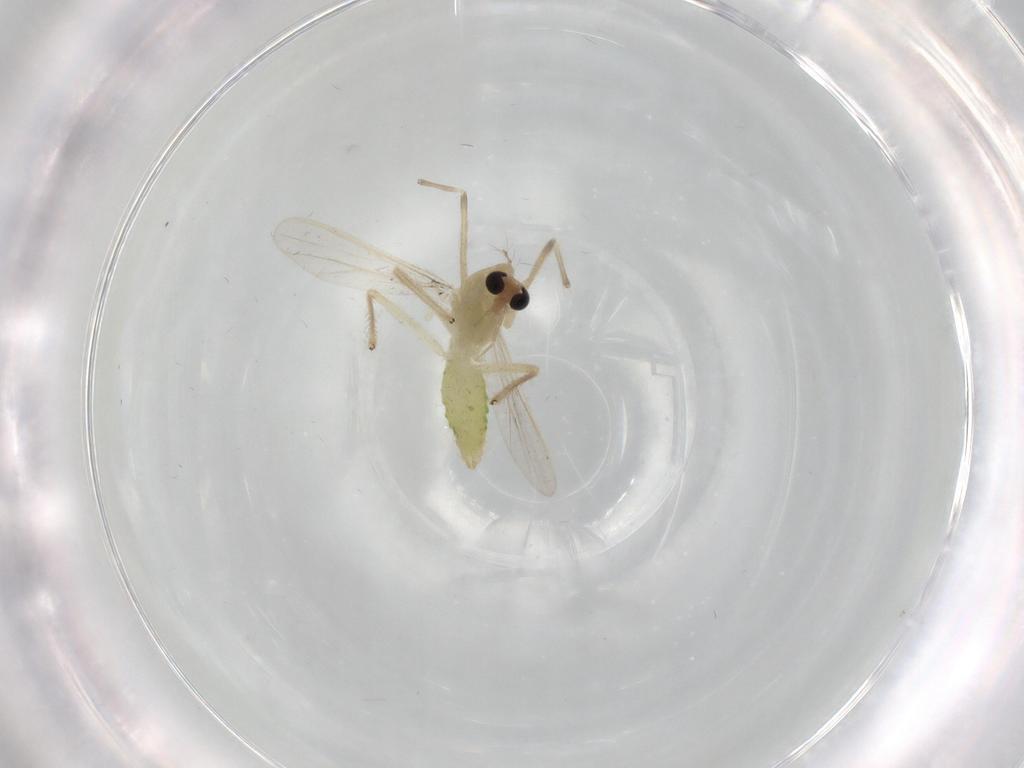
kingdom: Animalia
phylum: Arthropoda
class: Insecta
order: Diptera
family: Chironomidae
